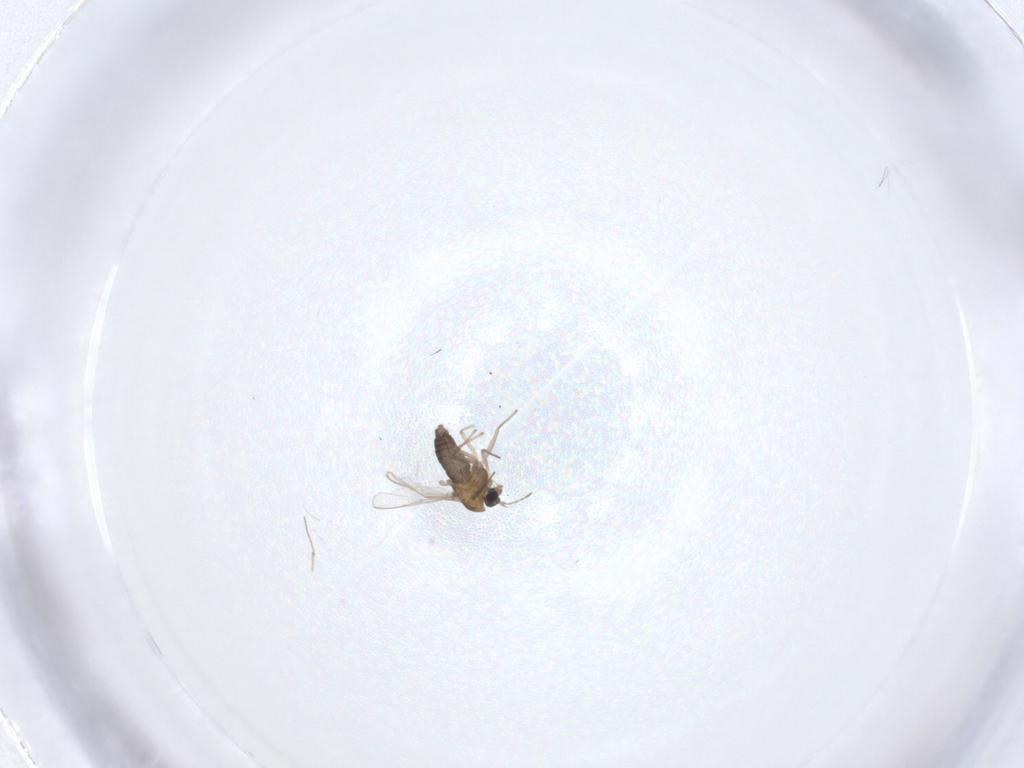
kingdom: Animalia
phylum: Arthropoda
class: Insecta
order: Diptera
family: Chironomidae
